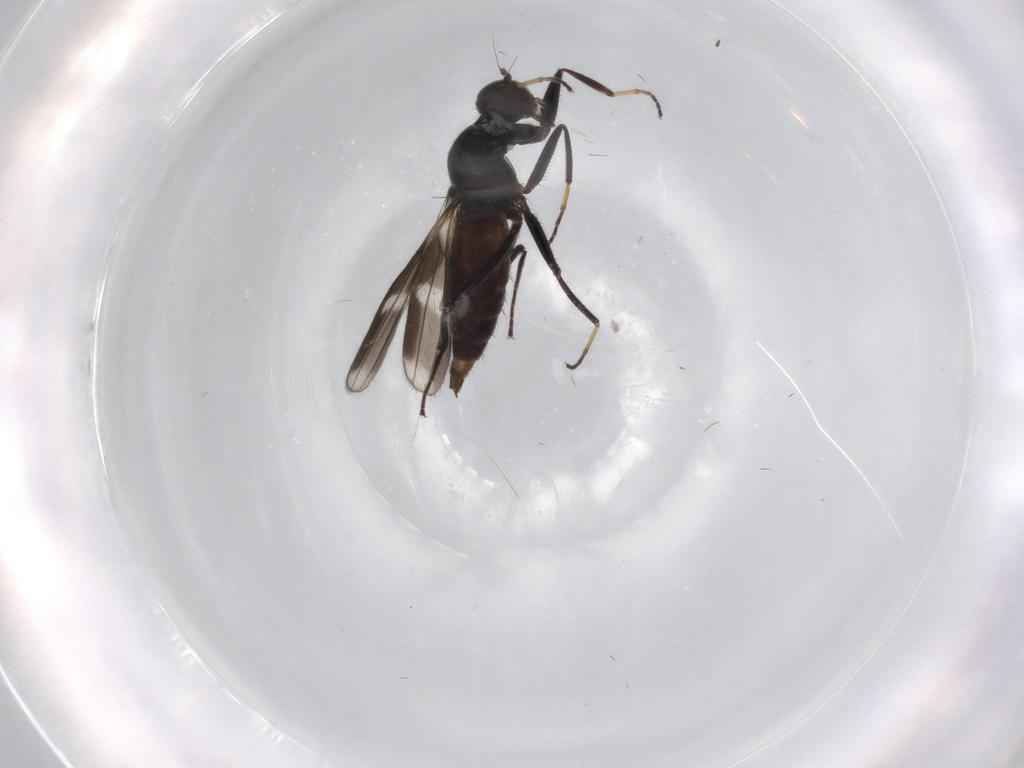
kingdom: Animalia
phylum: Arthropoda
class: Insecta
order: Diptera
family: Hybotidae
